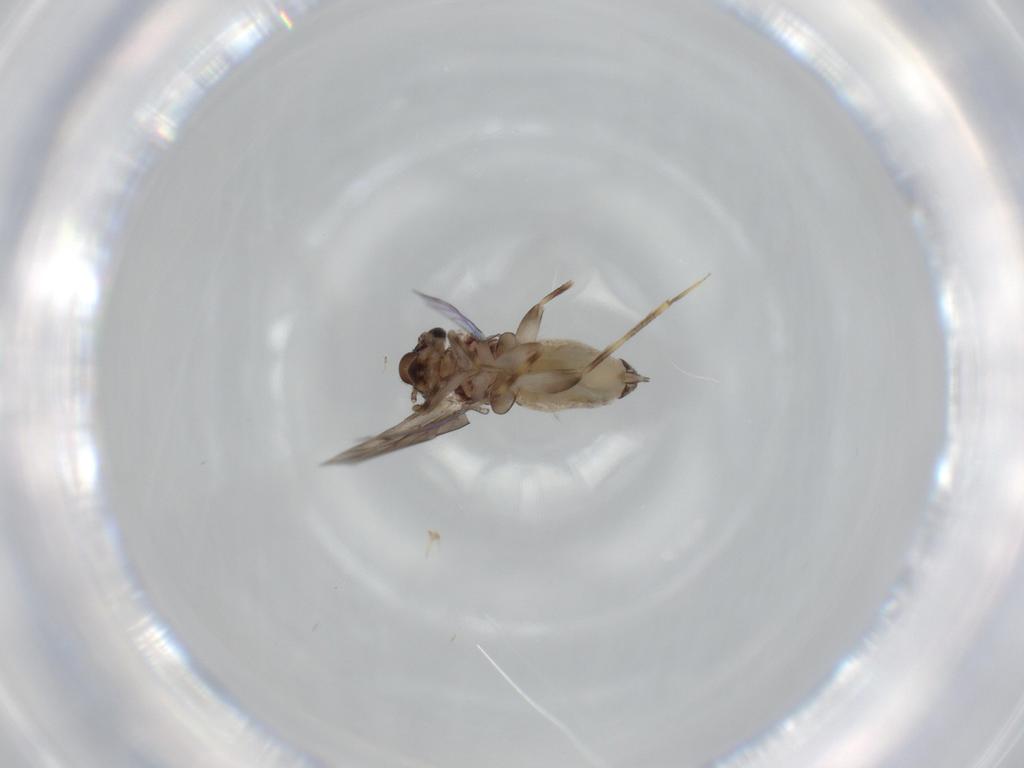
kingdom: Animalia
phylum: Arthropoda
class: Insecta
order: Psocodea
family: Lepidopsocidae
